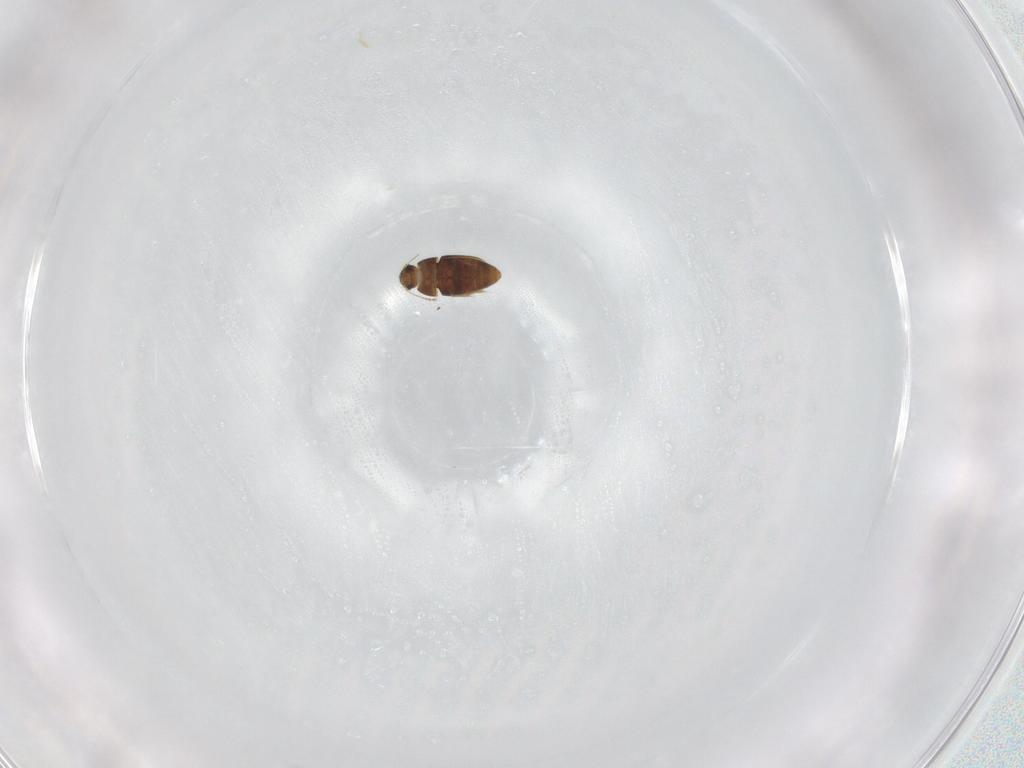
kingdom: Animalia
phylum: Arthropoda
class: Insecta
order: Coleoptera
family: Ptiliidae
